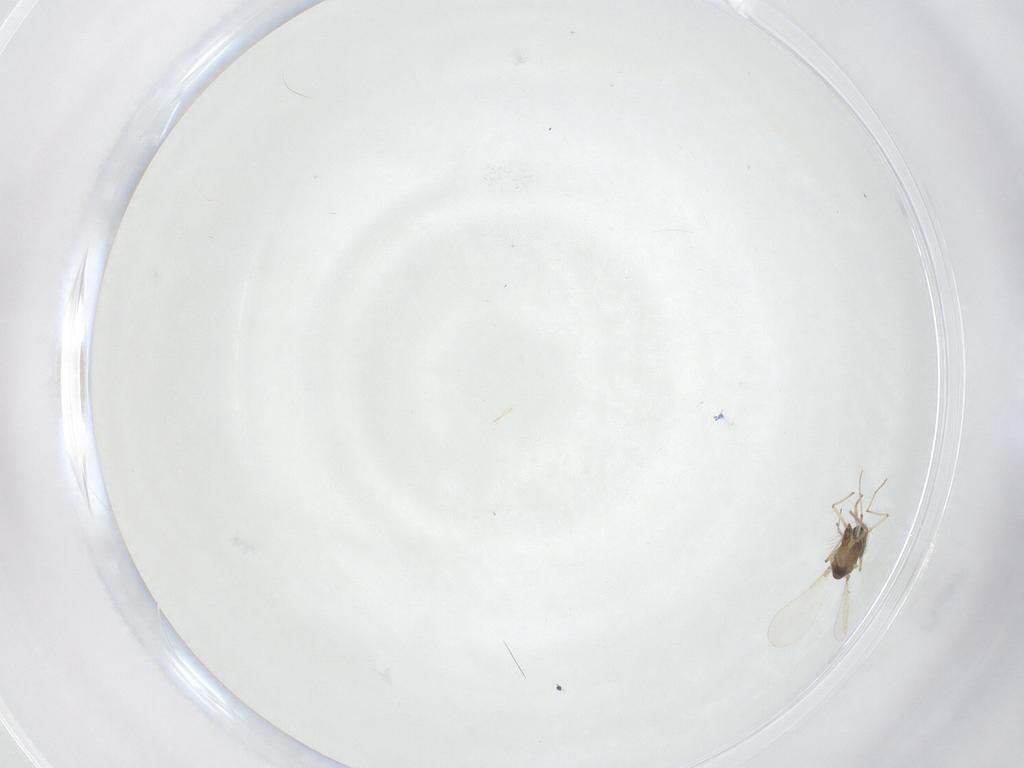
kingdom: Animalia
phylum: Arthropoda
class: Insecta
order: Diptera
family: Chironomidae
